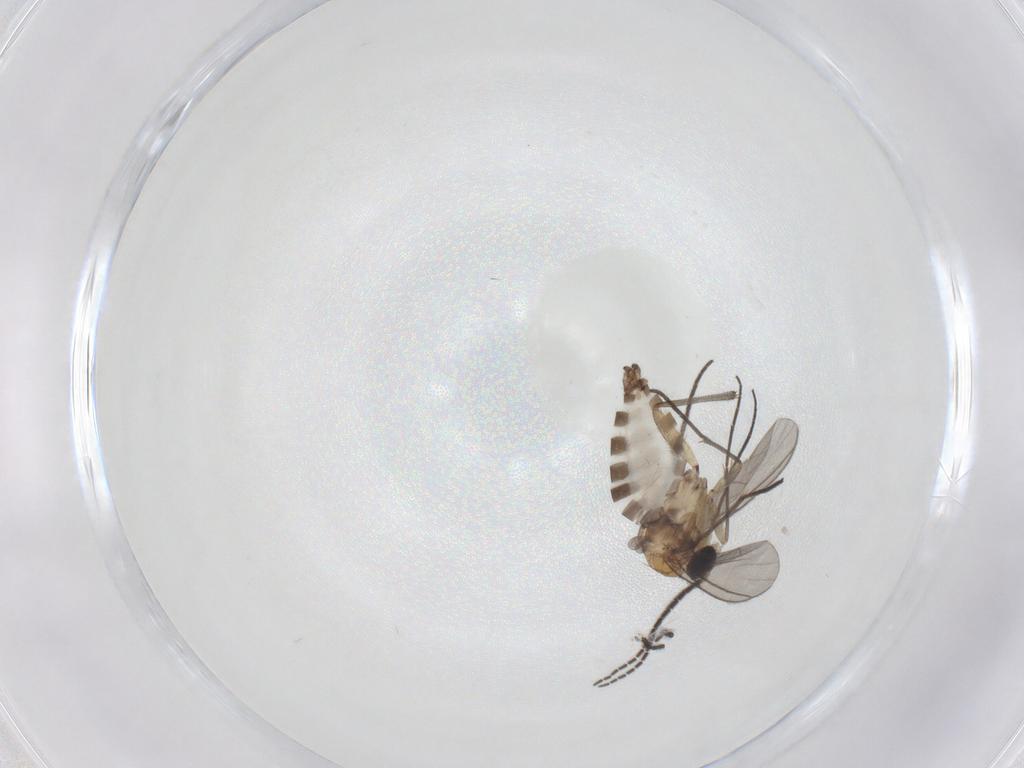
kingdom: Animalia
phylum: Arthropoda
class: Insecta
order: Diptera
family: Sciaridae
